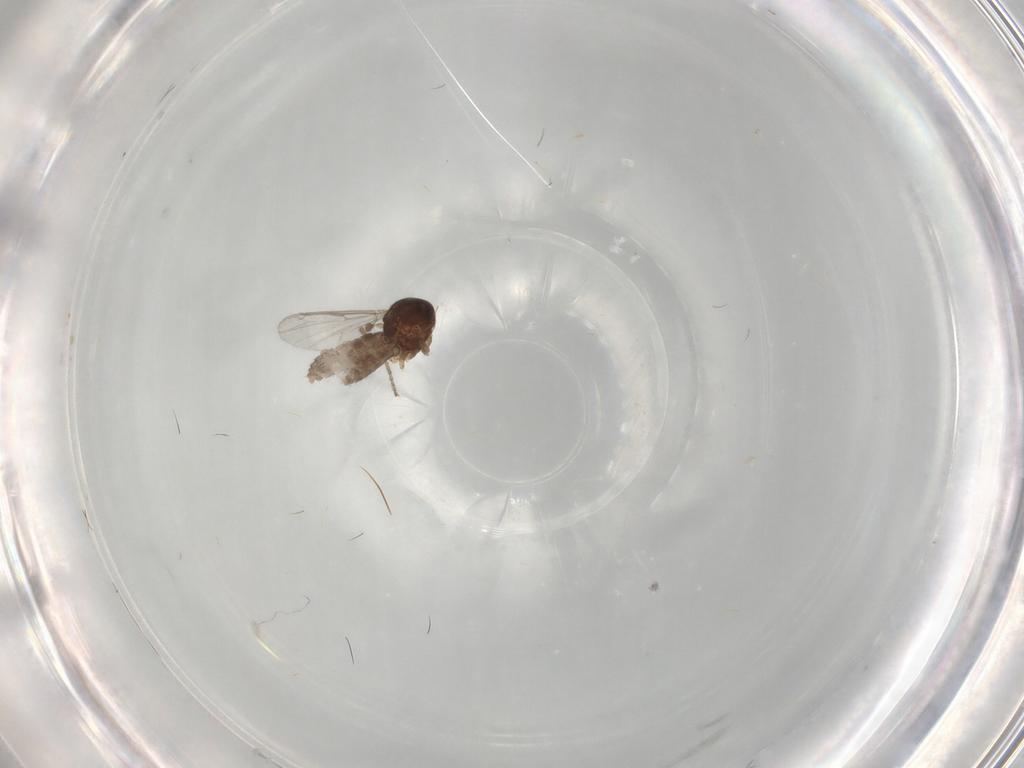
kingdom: Animalia
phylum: Arthropoda
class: Insecta
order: Diptera
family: Ceratopogonidae
